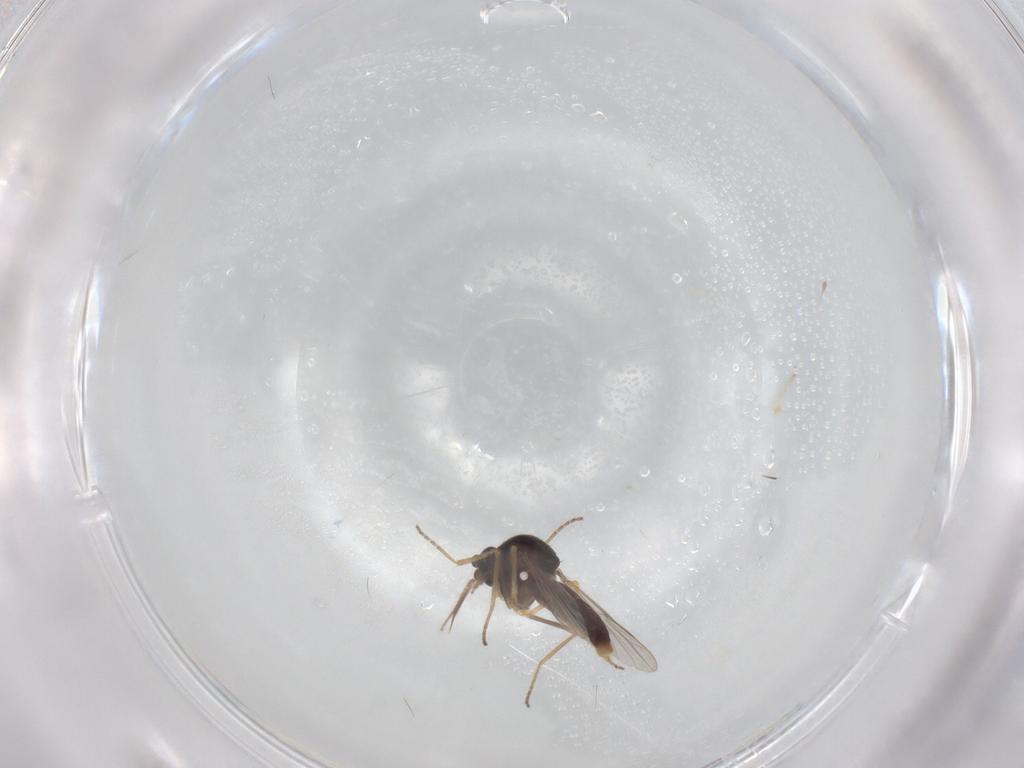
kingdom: Animalia
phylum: Arthropoda
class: Insecta
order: Diptera
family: Ceratopogonidae
